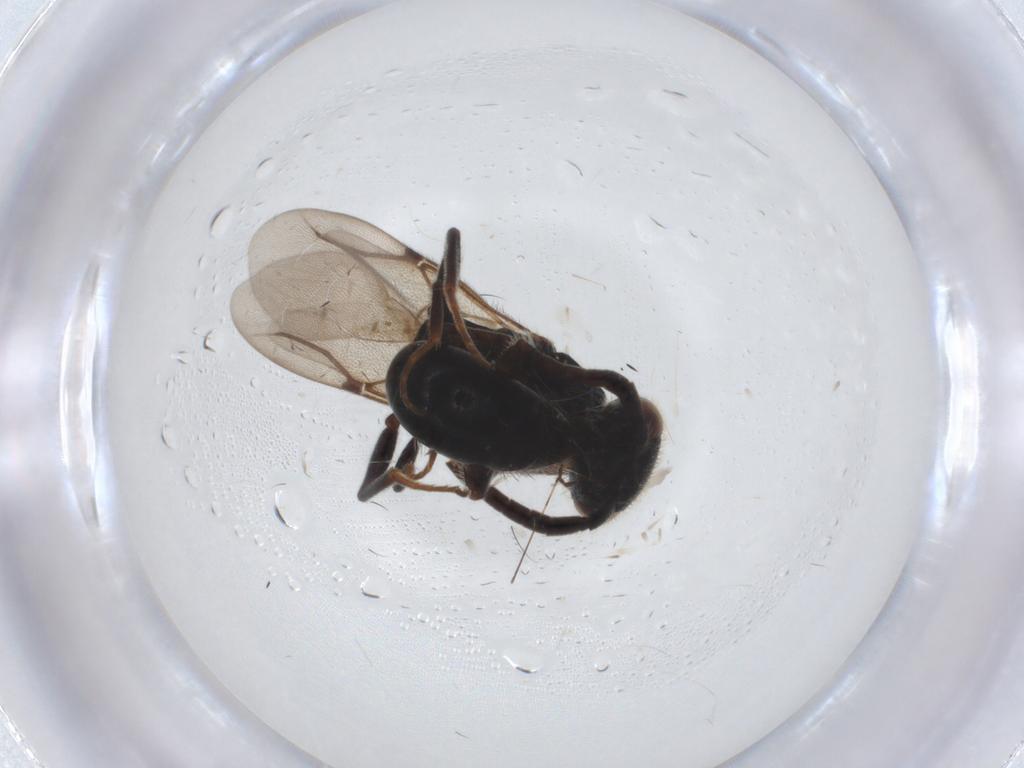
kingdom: Animalia
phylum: Arthropoda
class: Insecta
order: Hymenoptera
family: Bethylidae
